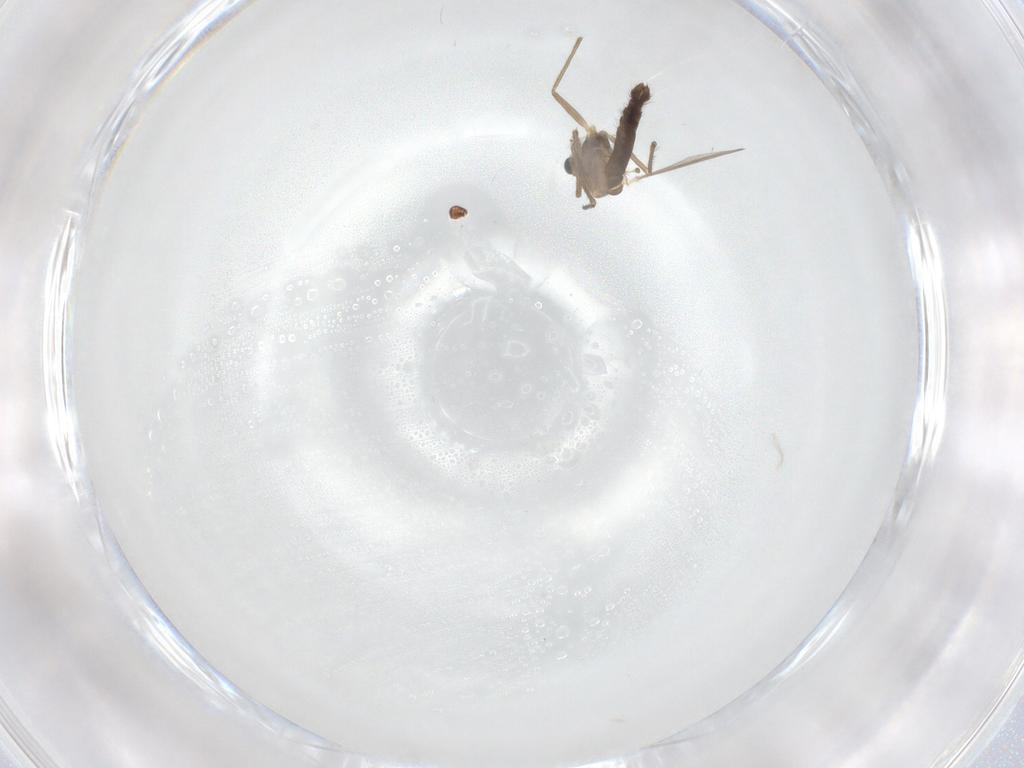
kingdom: Animalia
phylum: Arthropoda
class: Insecta
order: Diptera
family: Chironomidae
